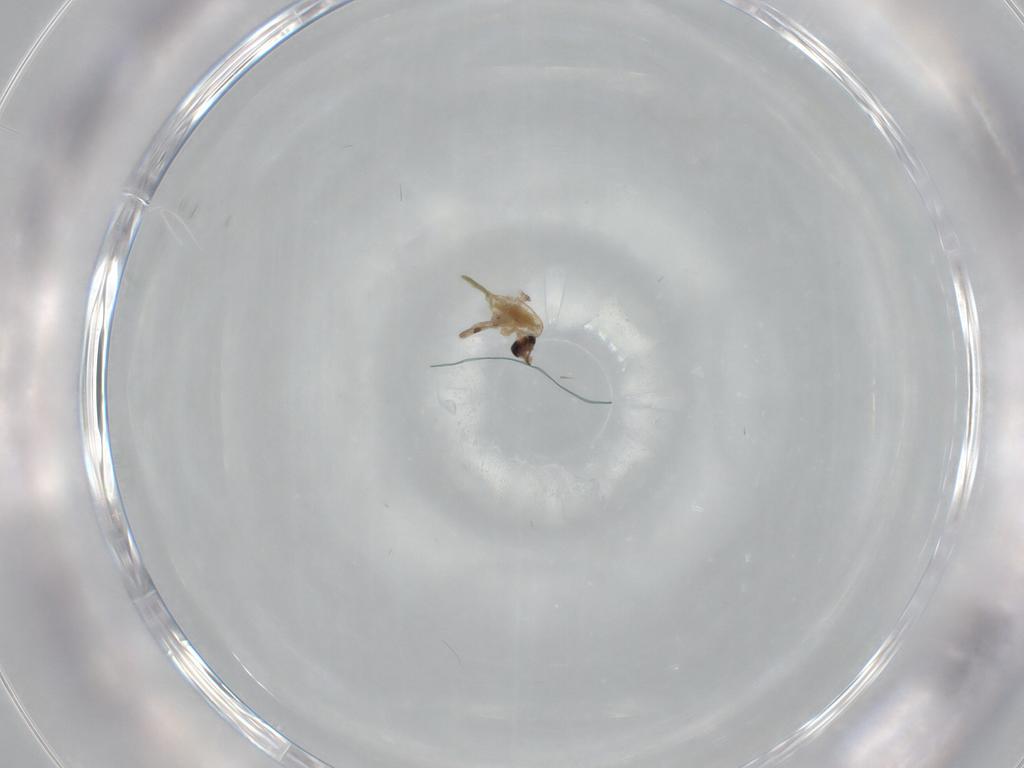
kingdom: Animalia
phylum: Arthropoda
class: Insecta
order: Diptera
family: Chironomidae
